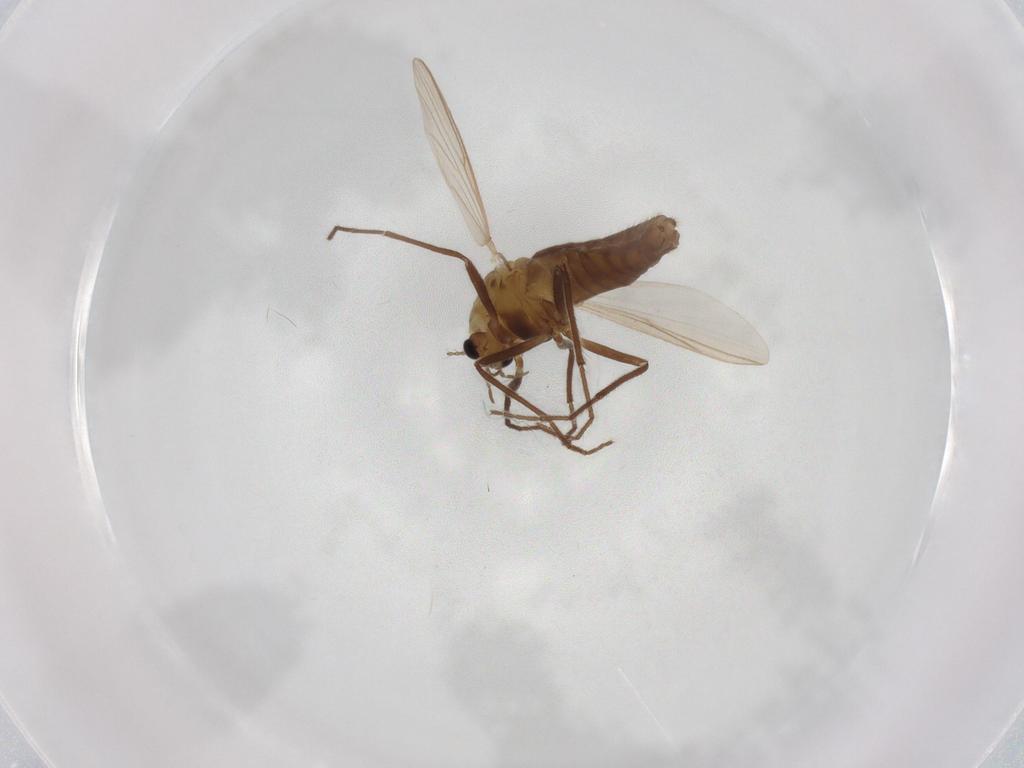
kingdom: Animalia
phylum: Arthropoda
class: Insecta
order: Diptera
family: Chironomidae
